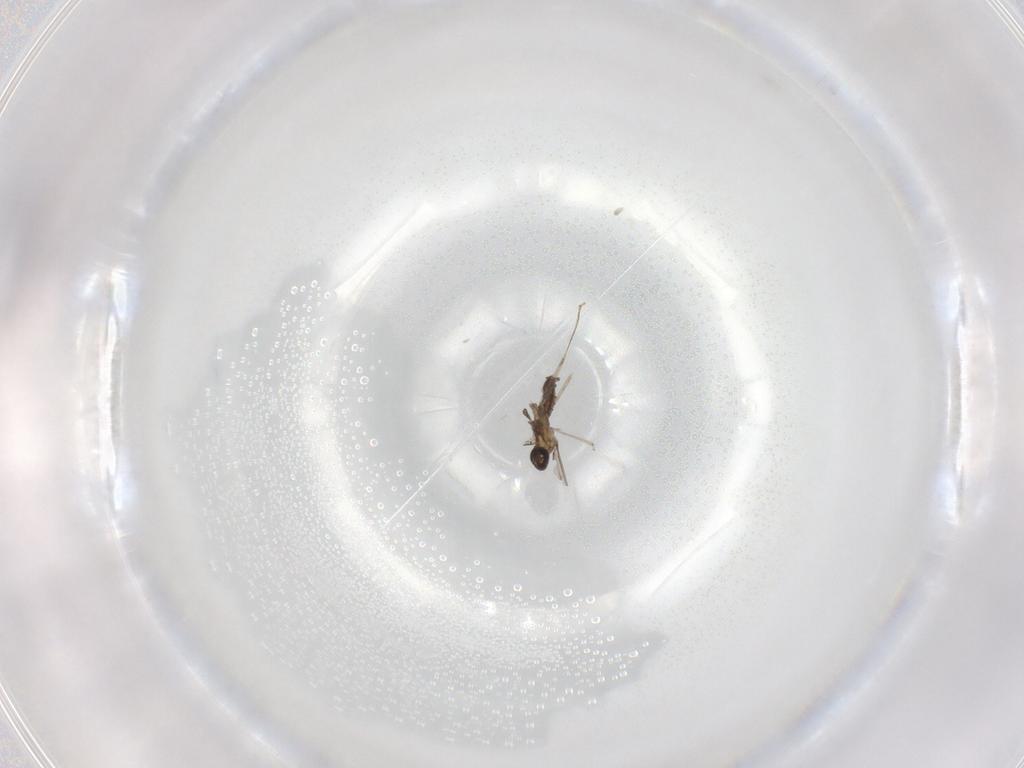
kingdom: Animalia
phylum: Arthropoda
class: Insecta
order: Diptera
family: Cecidomyiidae
